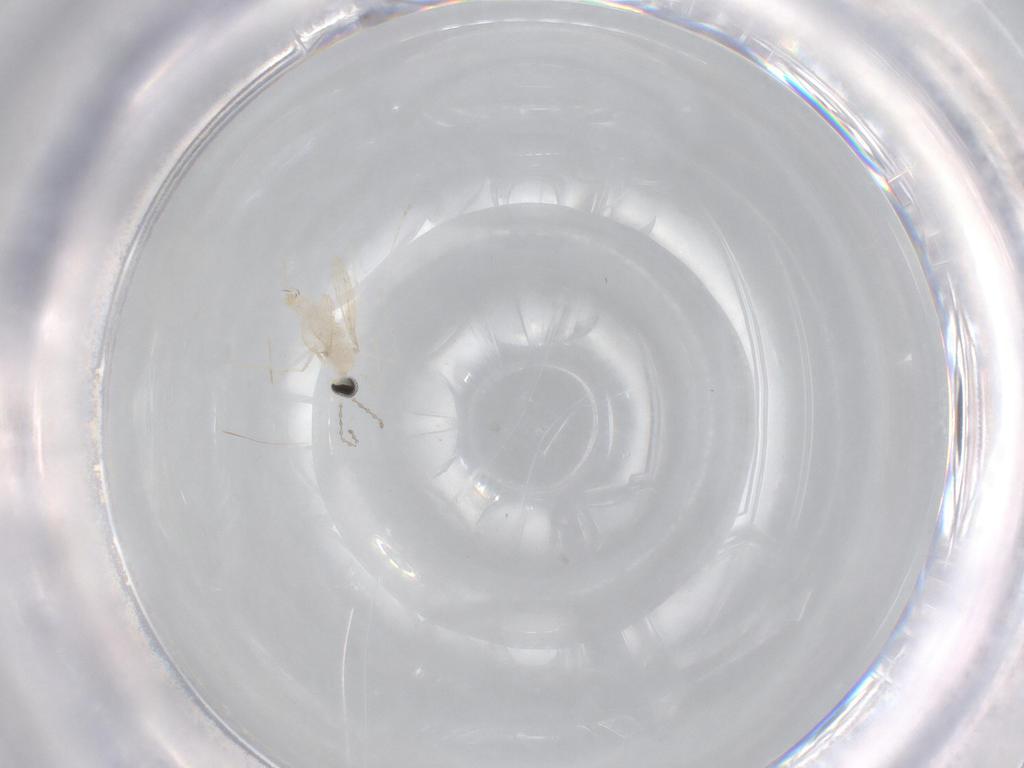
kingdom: Animalia
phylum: Arthropoda
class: Insecta
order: Diptera
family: Cecidomyiidae
